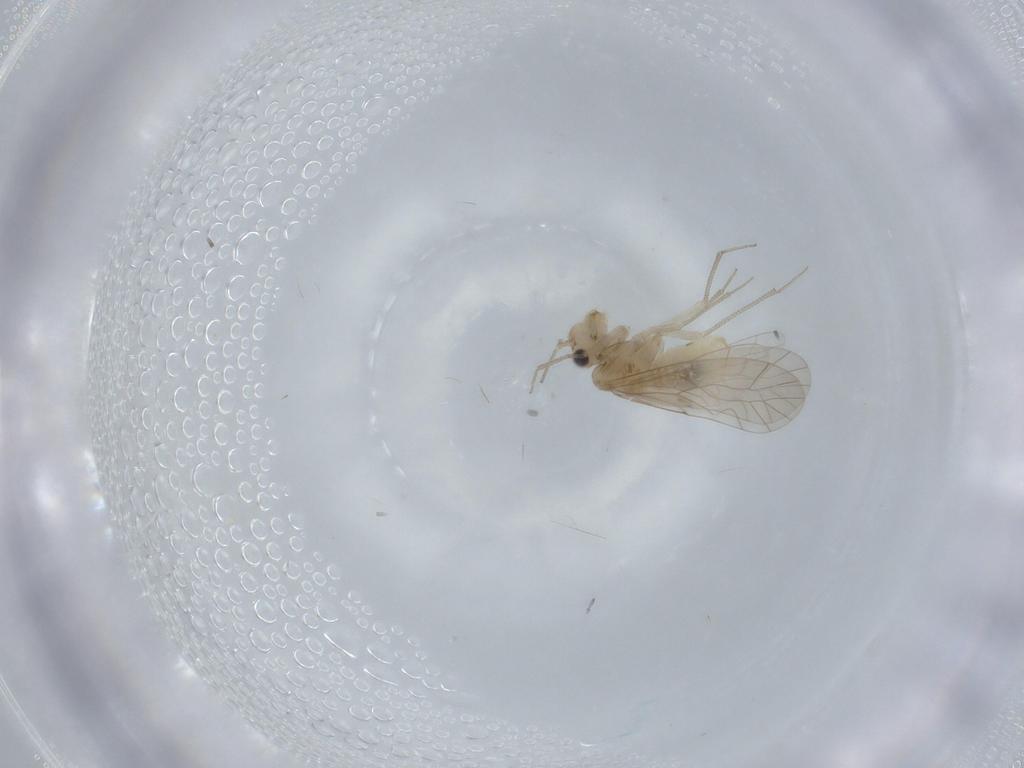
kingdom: Animalia
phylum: Arthropoda
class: Insecta
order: Psocodea
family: Lachesillidae
